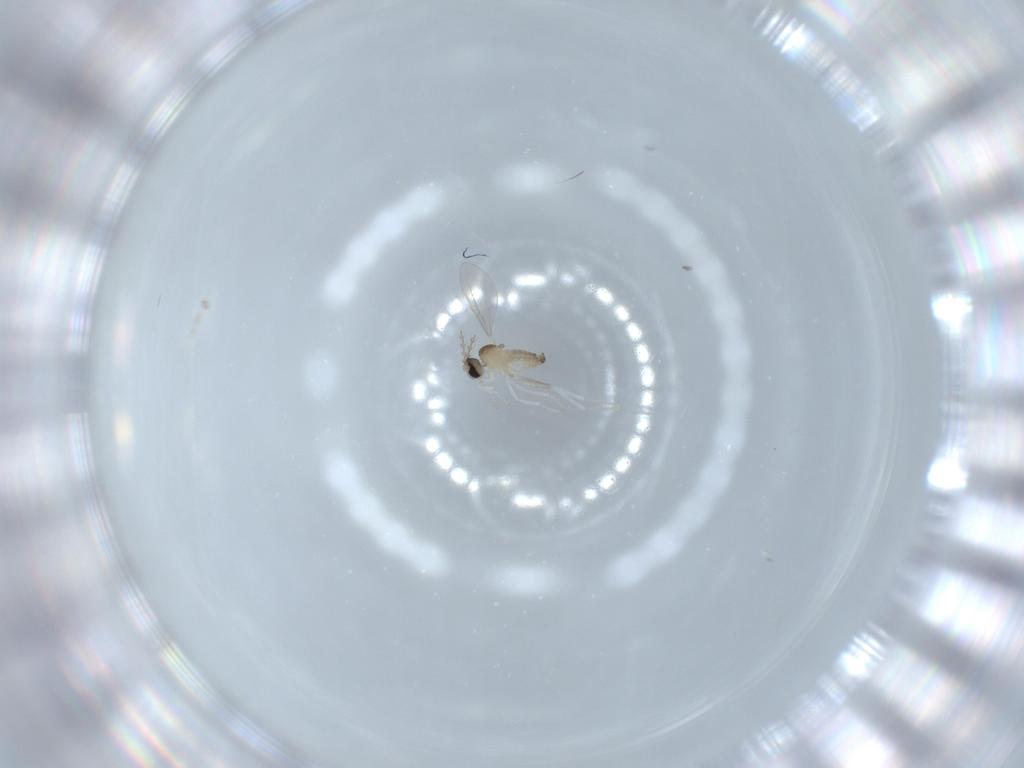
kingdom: Animalia
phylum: Arthropoda
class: Insecta
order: Diptera
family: Cecidomyiidae
